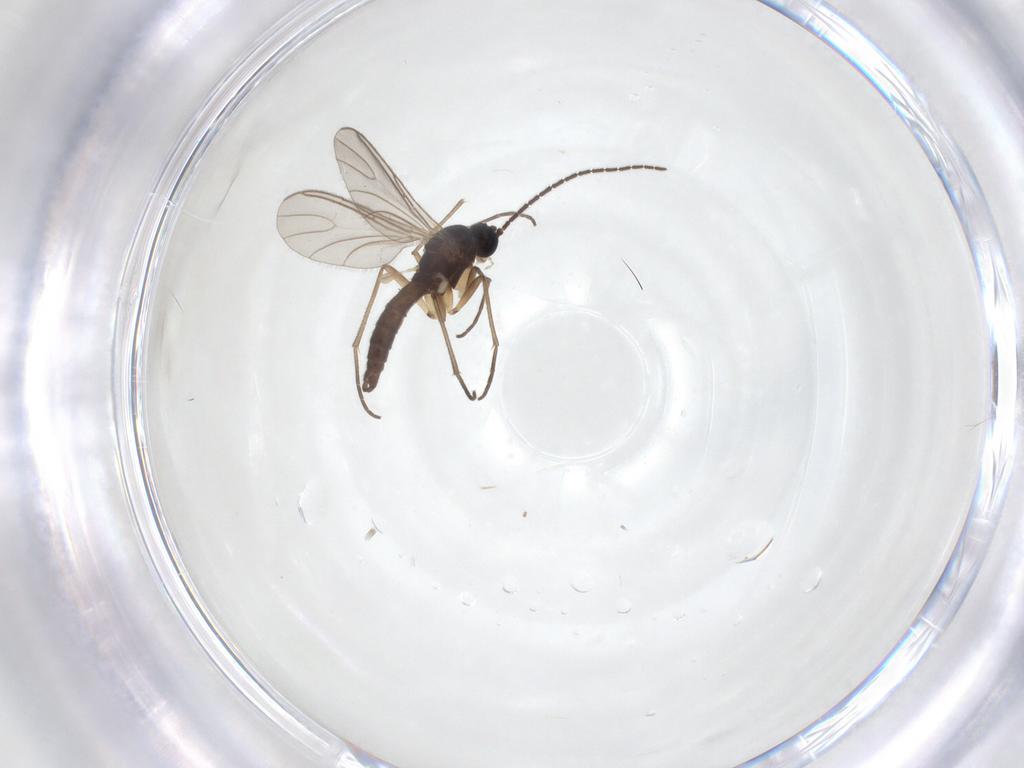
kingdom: Animalia
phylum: Arthropoda
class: Insecta
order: Diptera
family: Sciaridae
